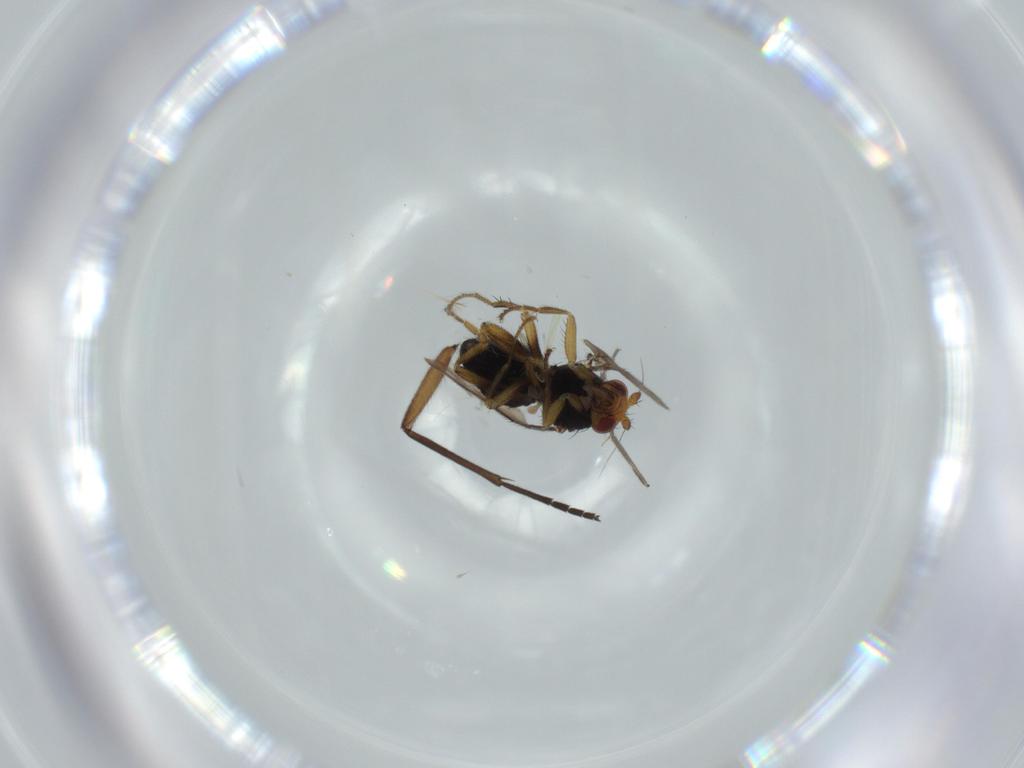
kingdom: Animalia
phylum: Arthropoda
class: Insecta
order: Diptera
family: Sphaeroceridae
